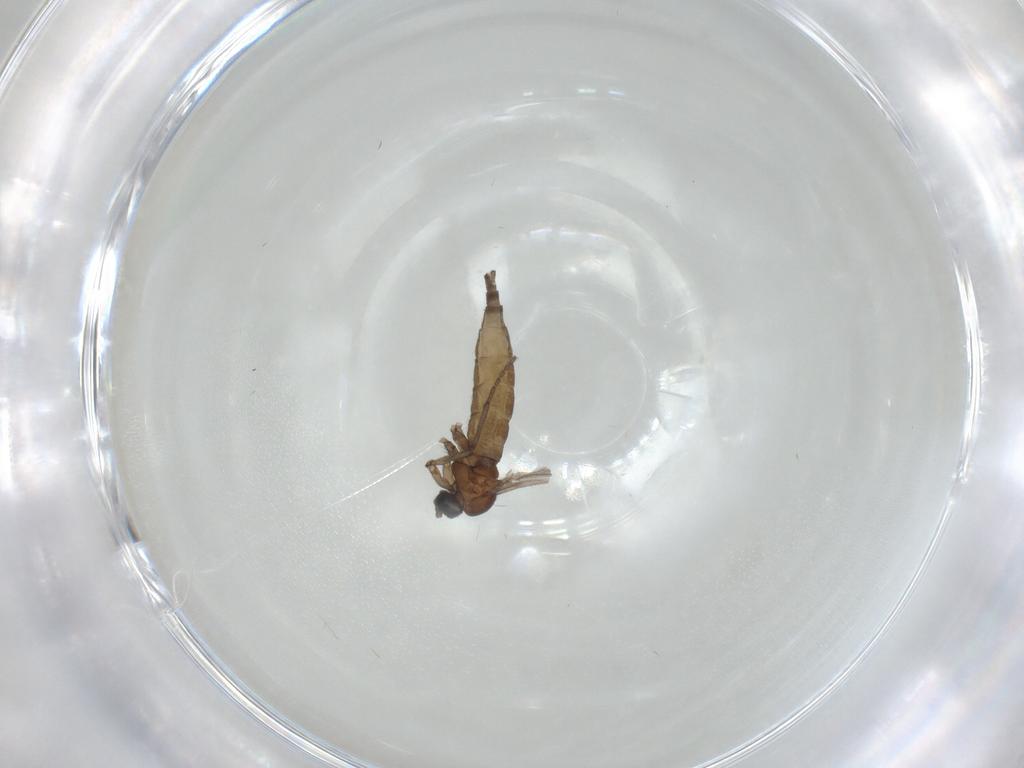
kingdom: Animalia
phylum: Arthropoda
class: Insecta
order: Diptera
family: Sciaridae
